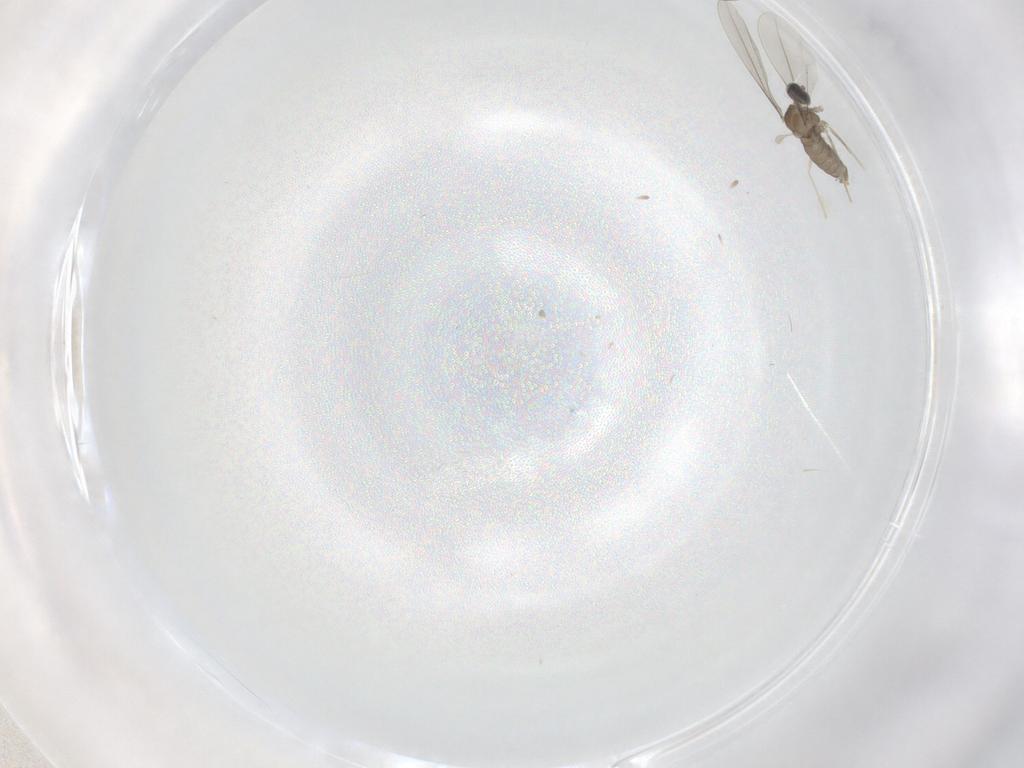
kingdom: Animalia
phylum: Arthropoda
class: Insecta
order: Diptera
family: Cecidomyiidae
